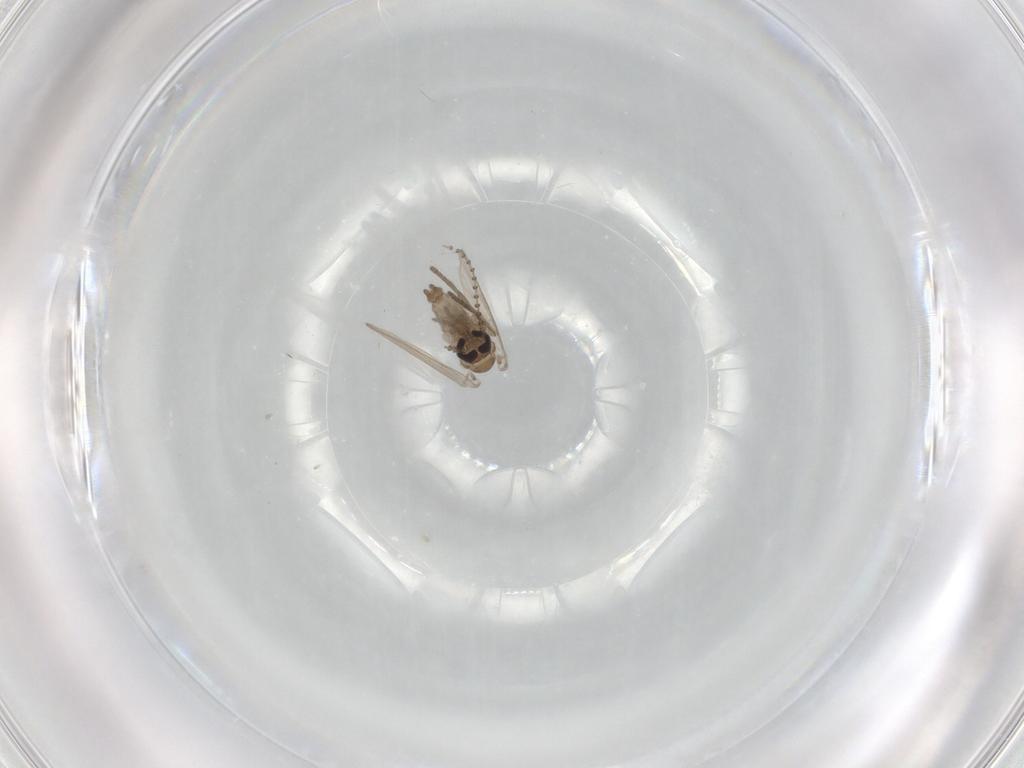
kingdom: Animalia
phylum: Arthropoda
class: Insecta
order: Diptera
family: Psychodidae
